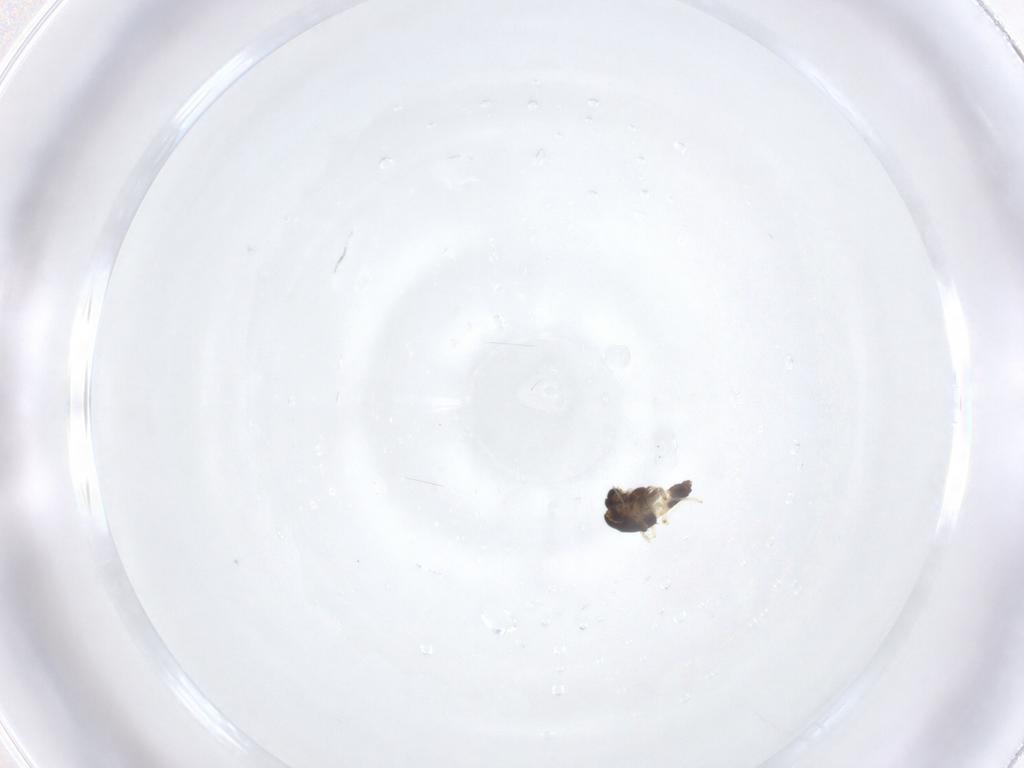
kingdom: Animalia
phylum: Arthropoda
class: Insecta
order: Diptera
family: Chironomidae
